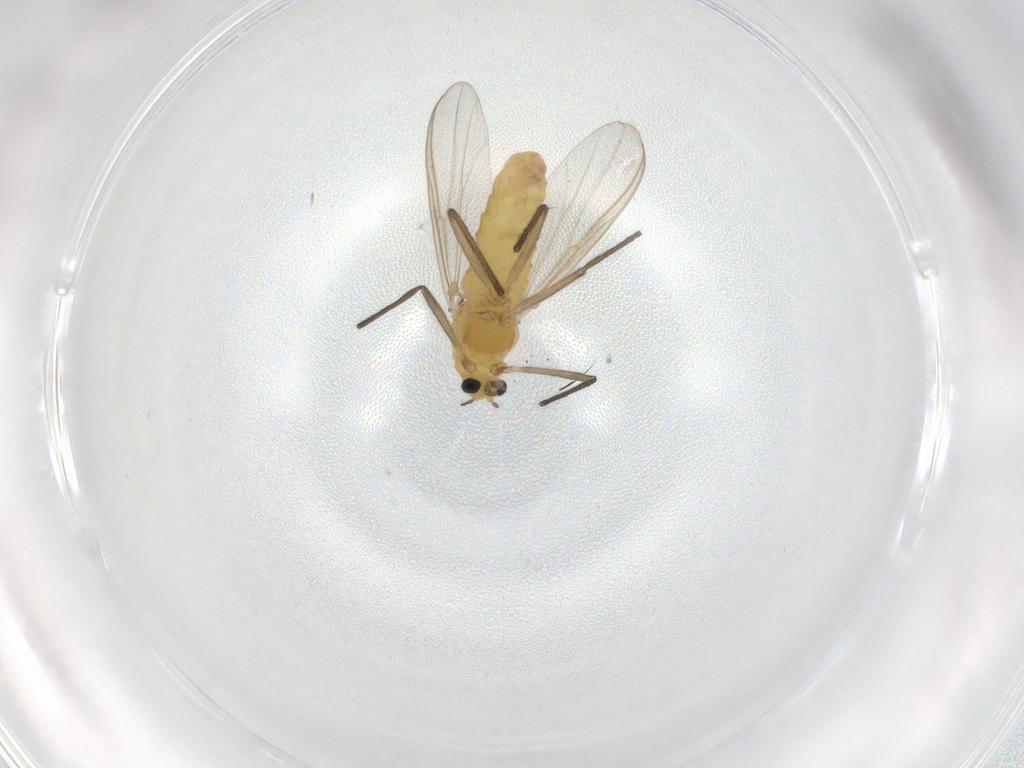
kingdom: Animalia
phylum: Arthropoda
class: Insecta
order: Diptera
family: Chironomidae
